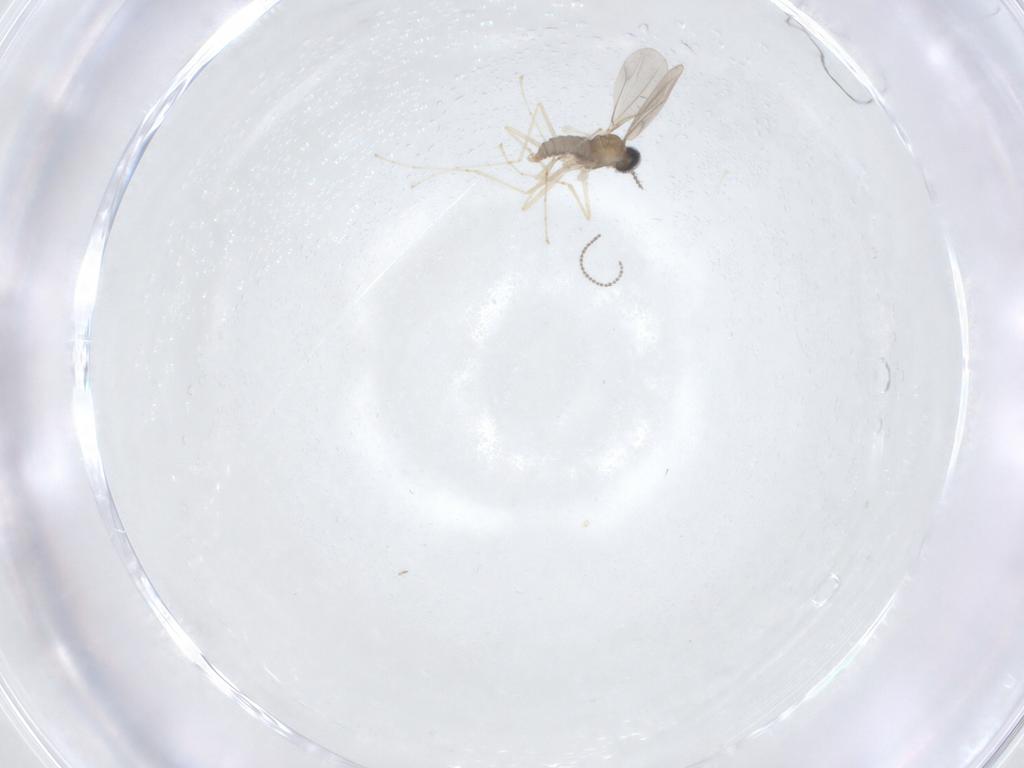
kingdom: Animalia
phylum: Arthropoda
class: Insecta
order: Diptera
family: Cecidomyiidae
